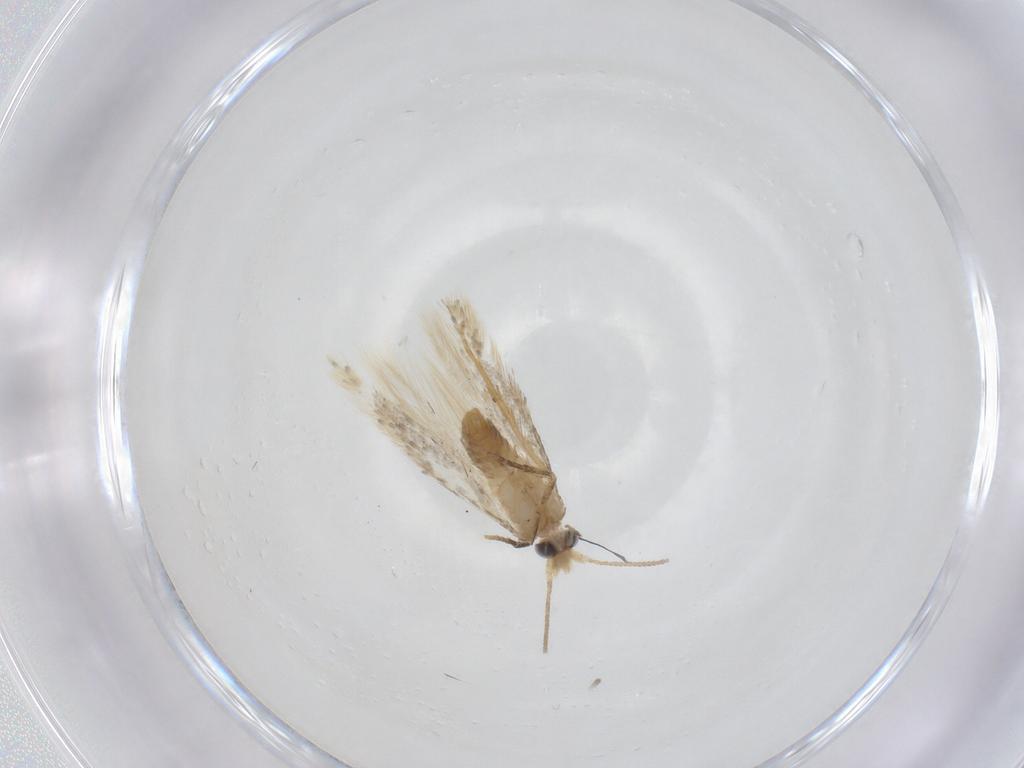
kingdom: Animalia
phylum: Arthropoda
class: Insecta
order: Lepidoptera
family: Nepticulidae
